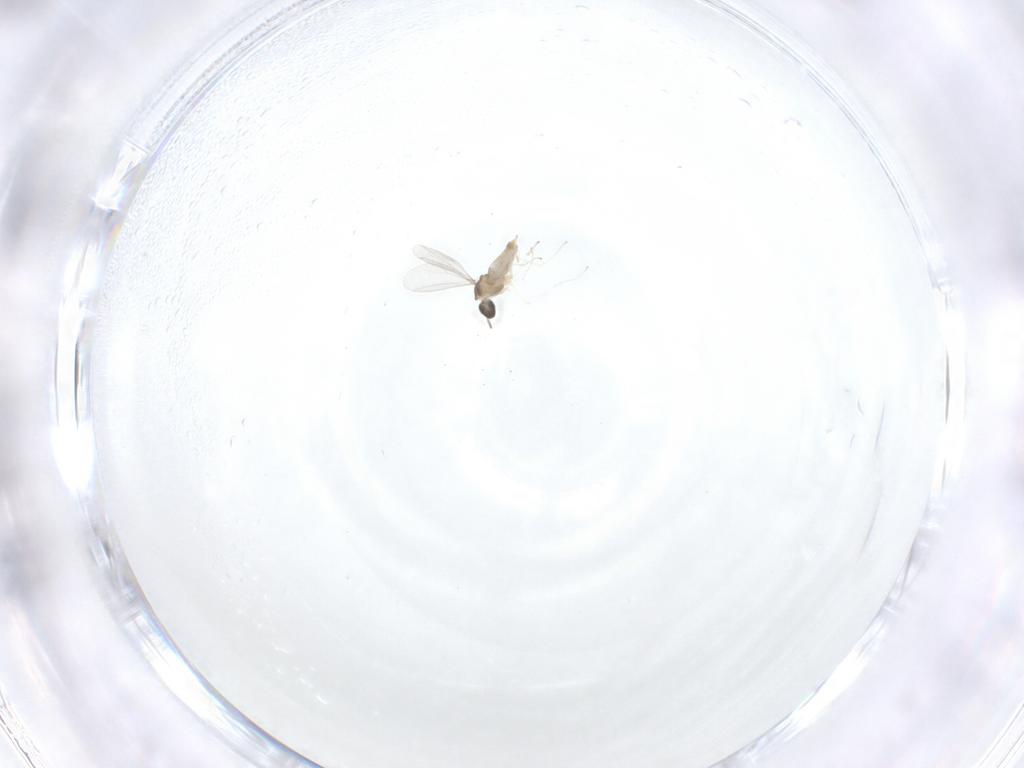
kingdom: Animalia
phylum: Arthropoda
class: Insecta
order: Diptera
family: Cecidomyiidae
